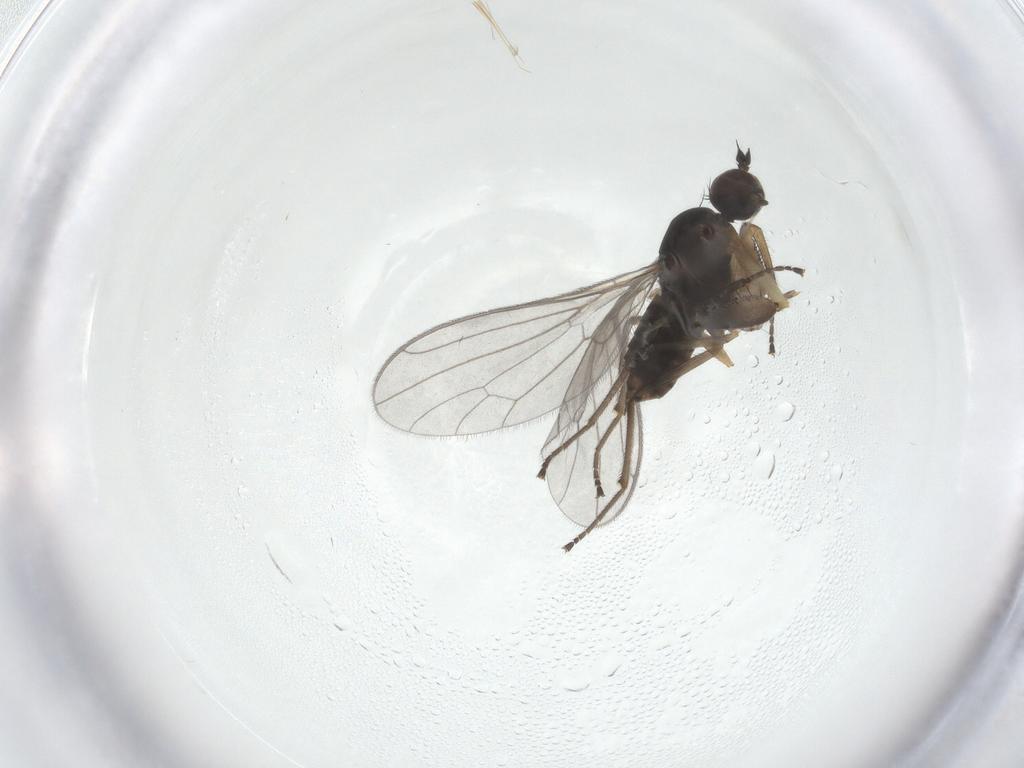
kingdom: Animalia
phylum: Arthropoda
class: Insecta
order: Diptera
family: Empididae
